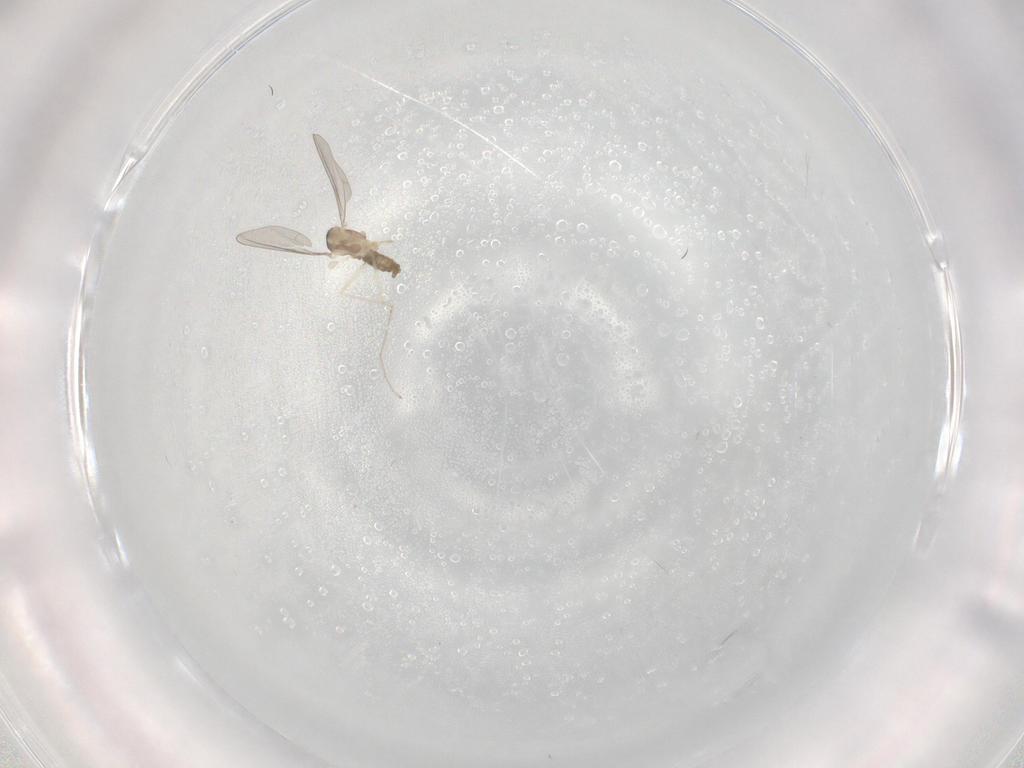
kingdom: Animalia
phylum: Arthropoda
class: Insecta
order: Diptera
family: Cecidomyiidae
